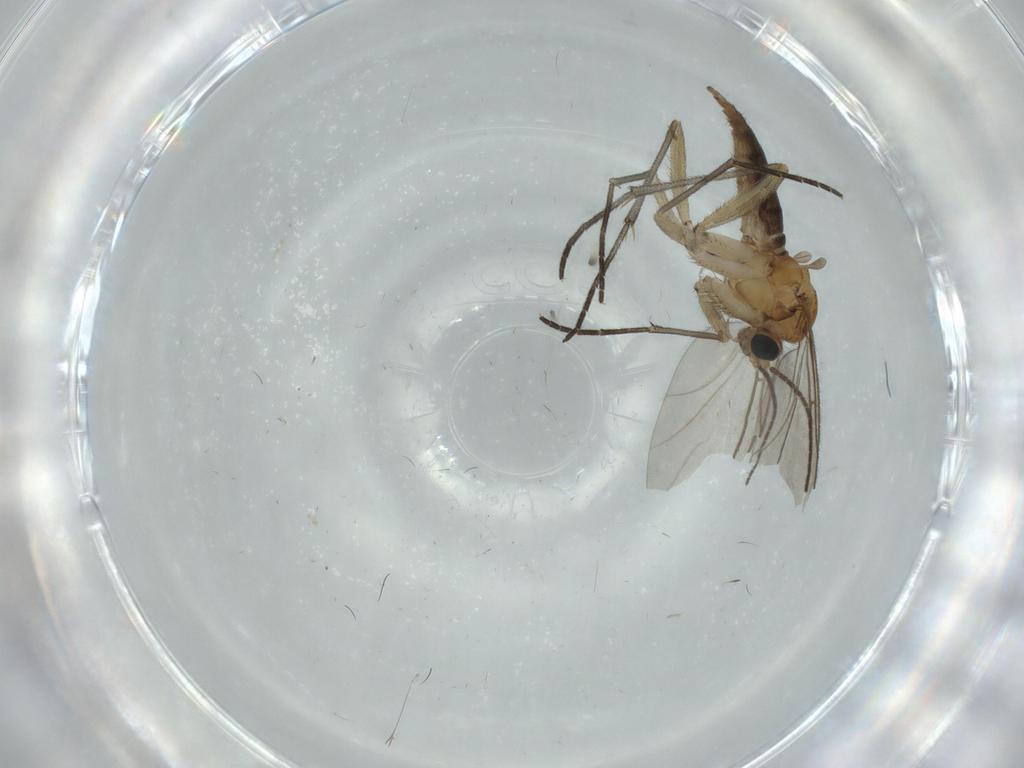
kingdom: Animalia
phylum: Arthropoda
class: Insecta
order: Diptera
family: Sciaridae
